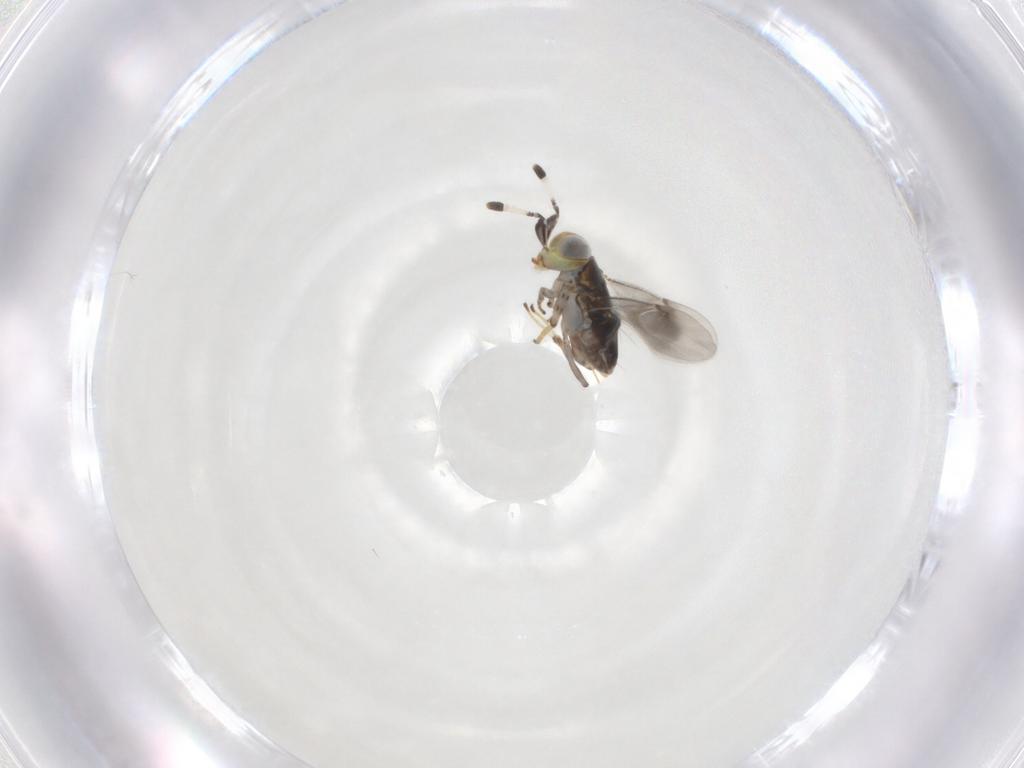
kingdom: Animalia
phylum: Arthropoda
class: Insecta
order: Hymenoptera
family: Encyrtidae
